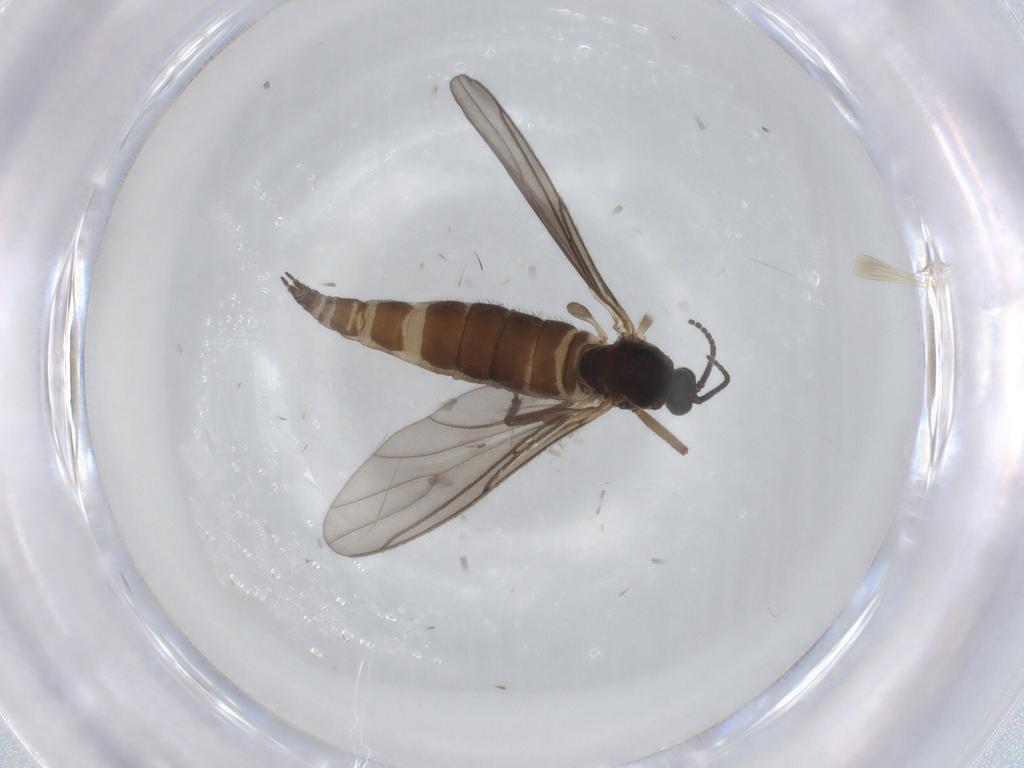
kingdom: Animalia
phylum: Arthropoda
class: Insecta
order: Diptera
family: Sciaridae
